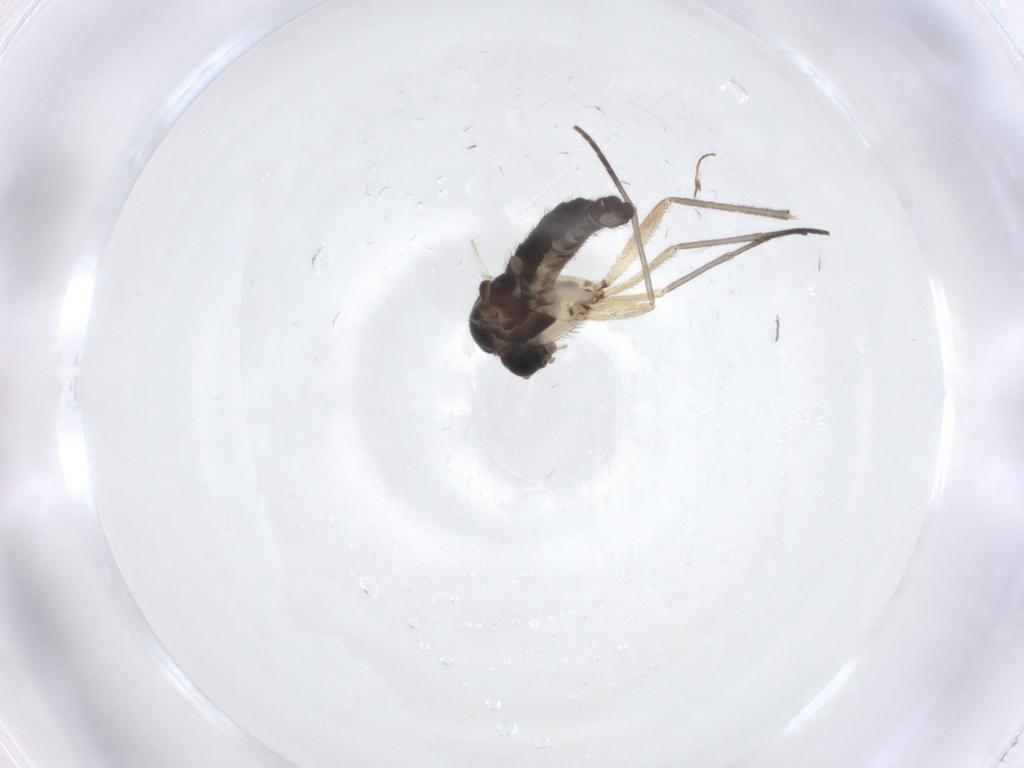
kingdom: Animalia
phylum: Arthropoda
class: Insecta
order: Diptera
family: Sciaridae
